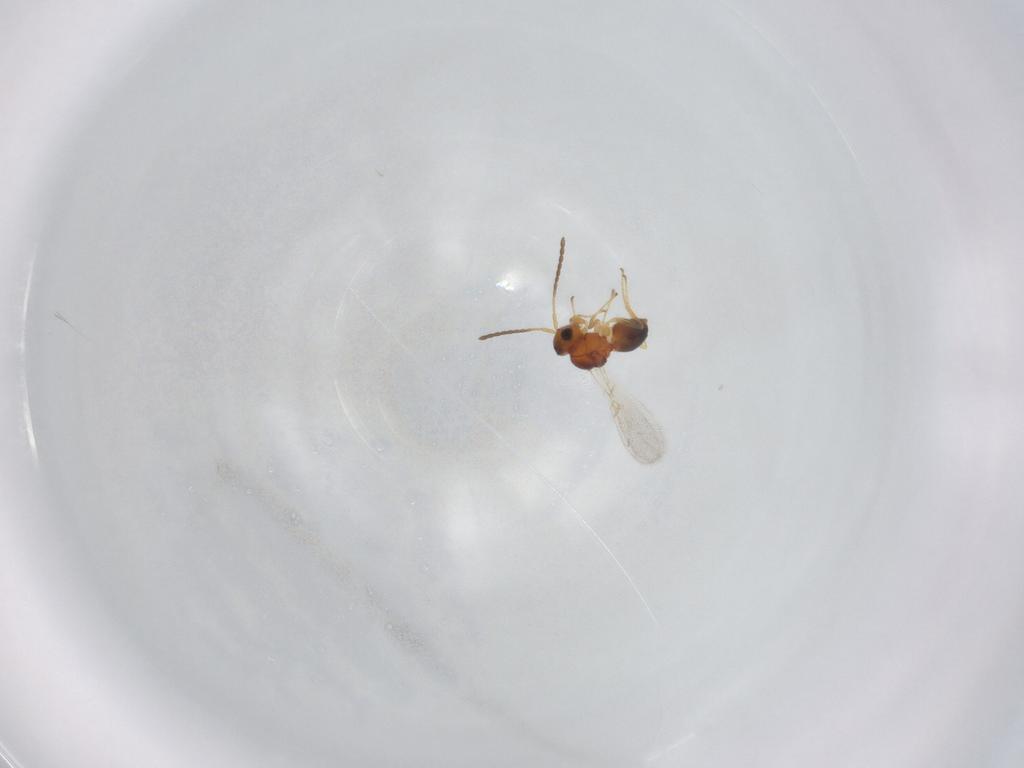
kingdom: Animalia
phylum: Arthropoda
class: Insecta
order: Hymenoptera
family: Figitidae
